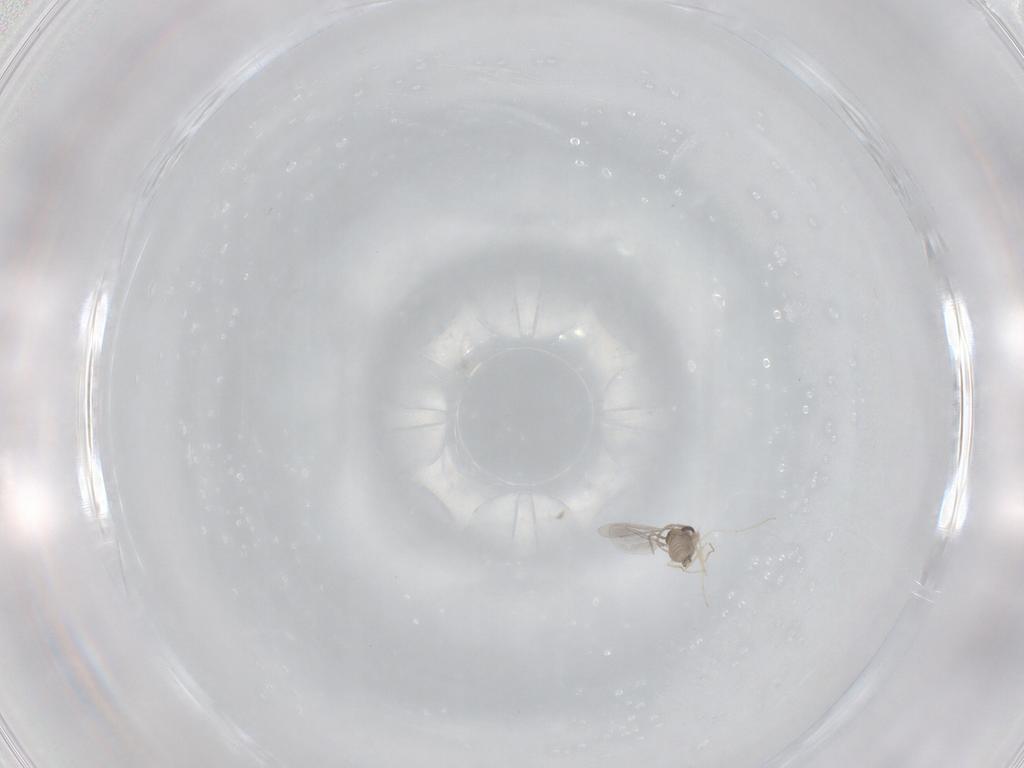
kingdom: Animalia
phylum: Arthropoda
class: Insecta
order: Diptera
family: Cecidomyiidae
